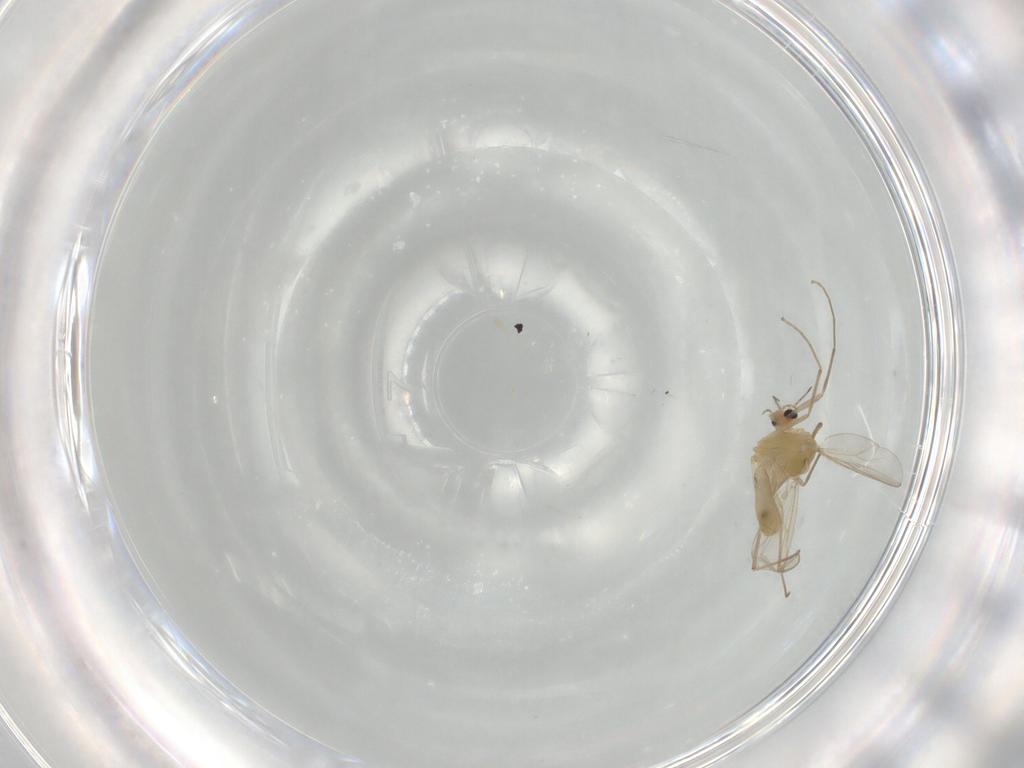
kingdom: Animalia
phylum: Arthropoda
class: Insecta
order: Diptera
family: Chironomidae
